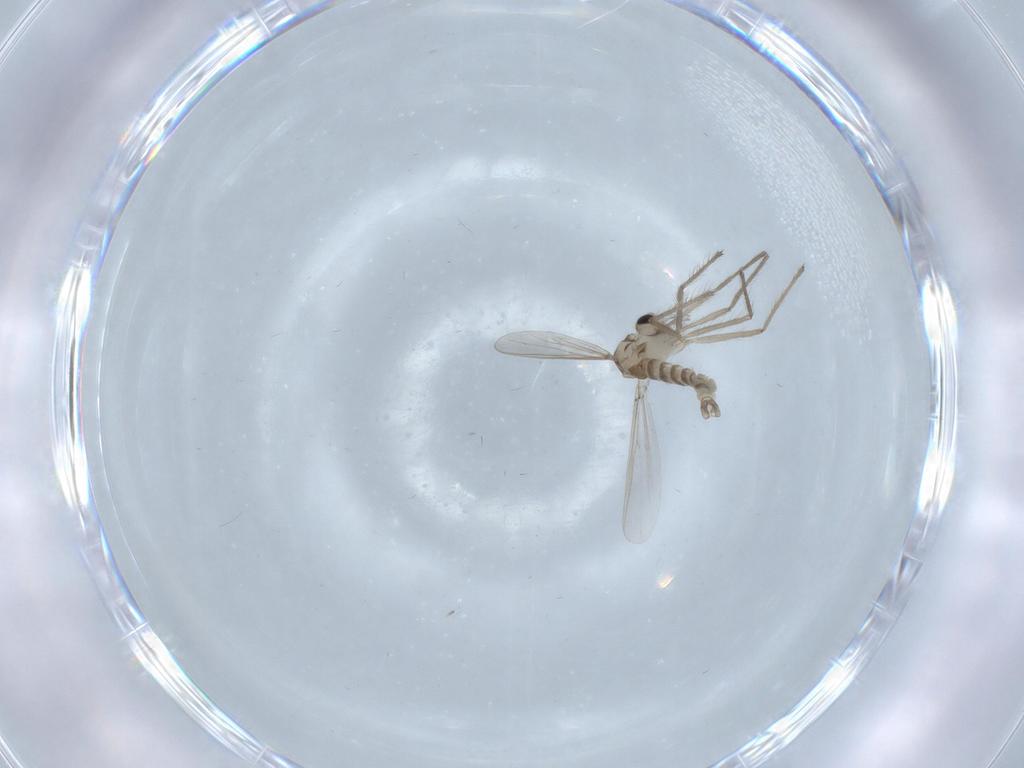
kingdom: Animalia
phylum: Arthropoda
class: Insecta
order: Diptera
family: Chironomidae
